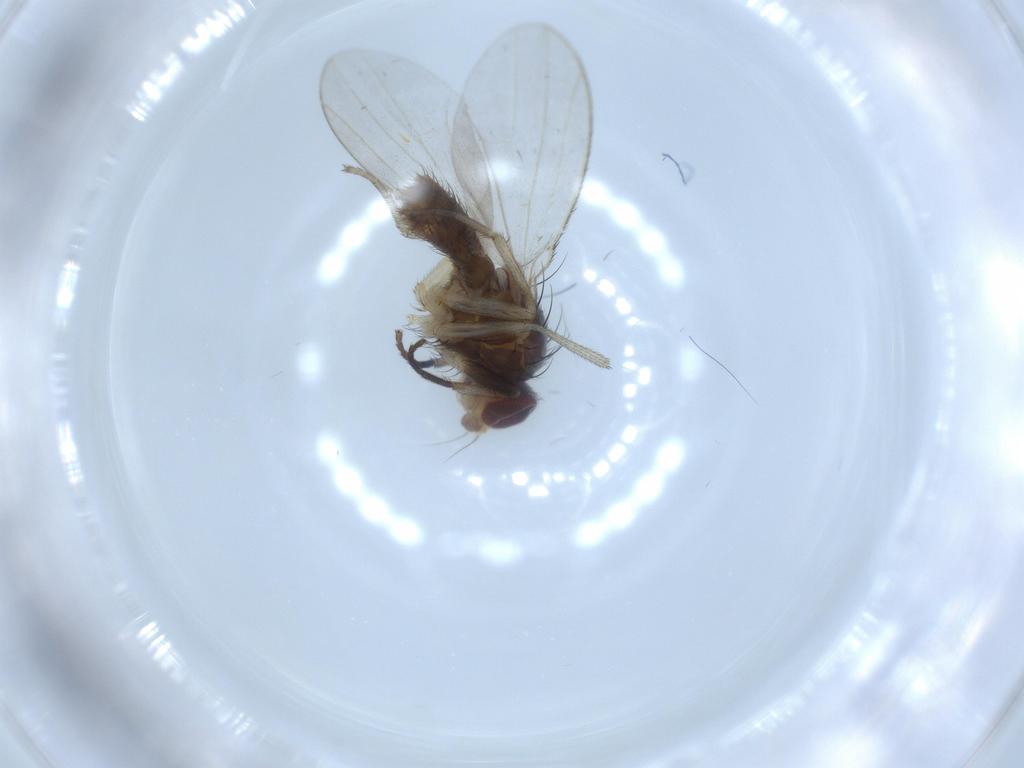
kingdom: Animalia
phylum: Arthropoda
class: Insecta
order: Diptera
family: Heleomyzidae
